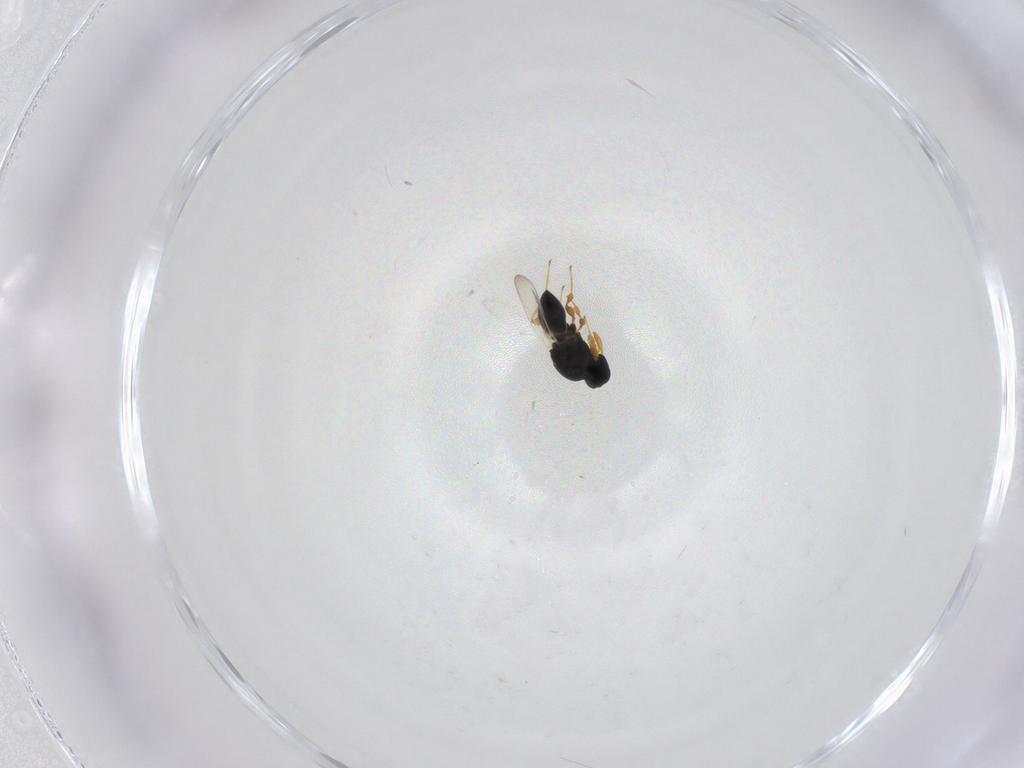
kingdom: Animalia
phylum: Arthropoda
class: Insecta
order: Hymenoptera
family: Platygastridae
